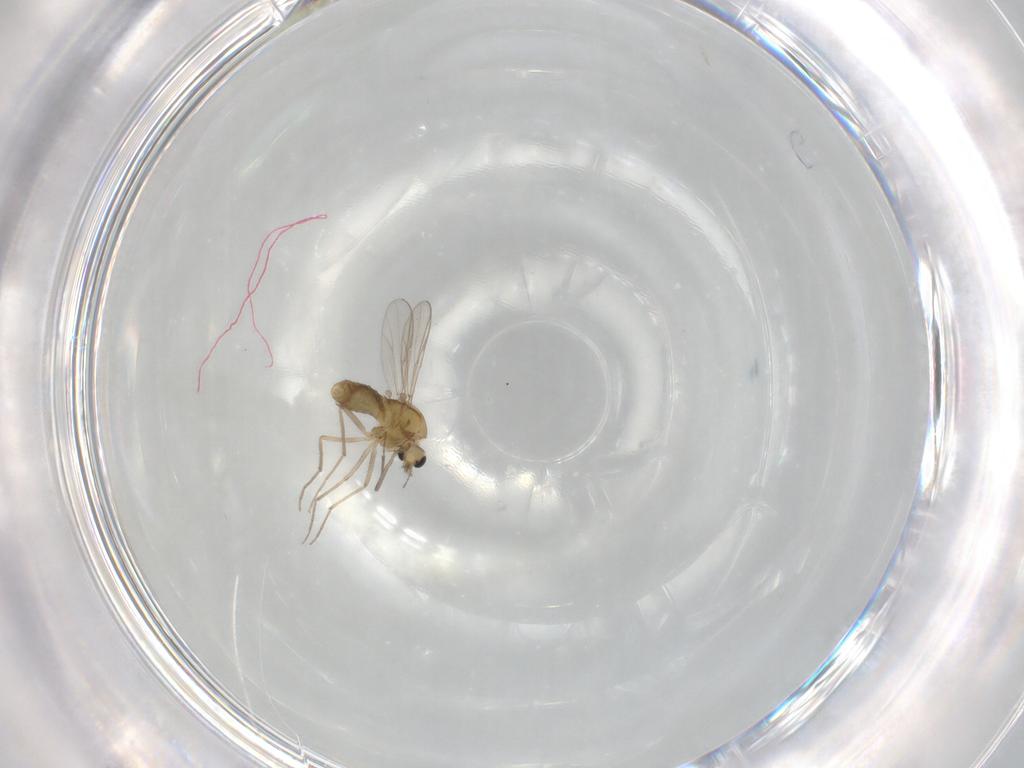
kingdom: Animalia
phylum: Arthropoda
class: Insecta
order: Diptera
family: Chironomidae
